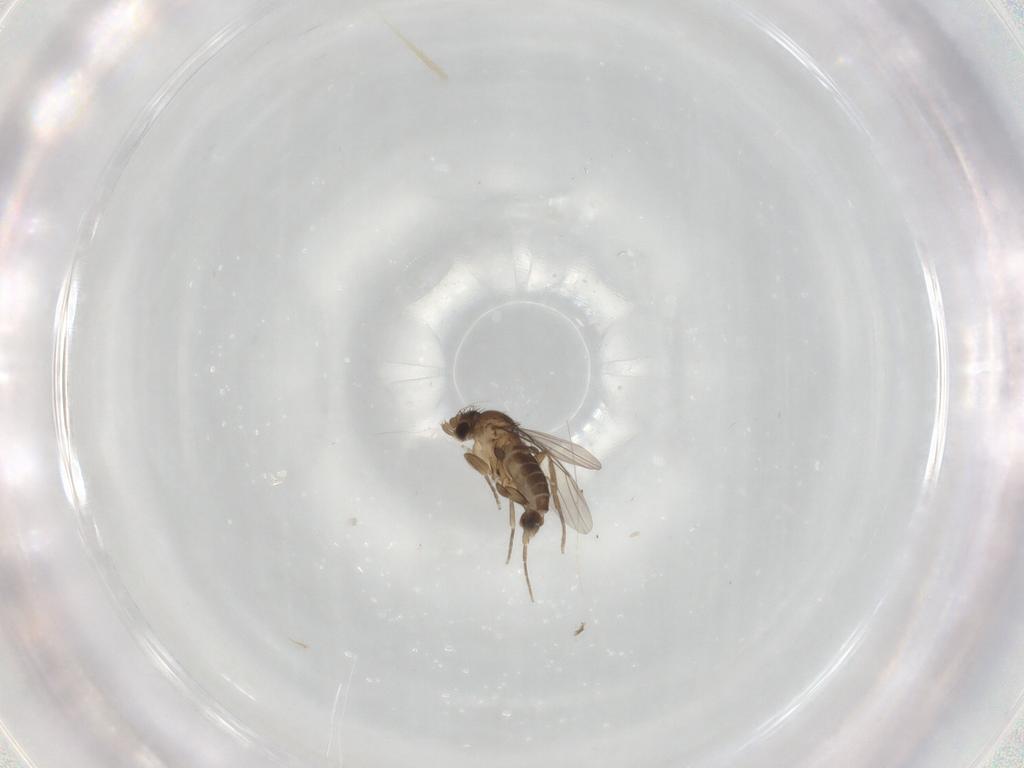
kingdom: Animalia
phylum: Arthropoda
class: Insecta
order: Diptera
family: Phoridae
